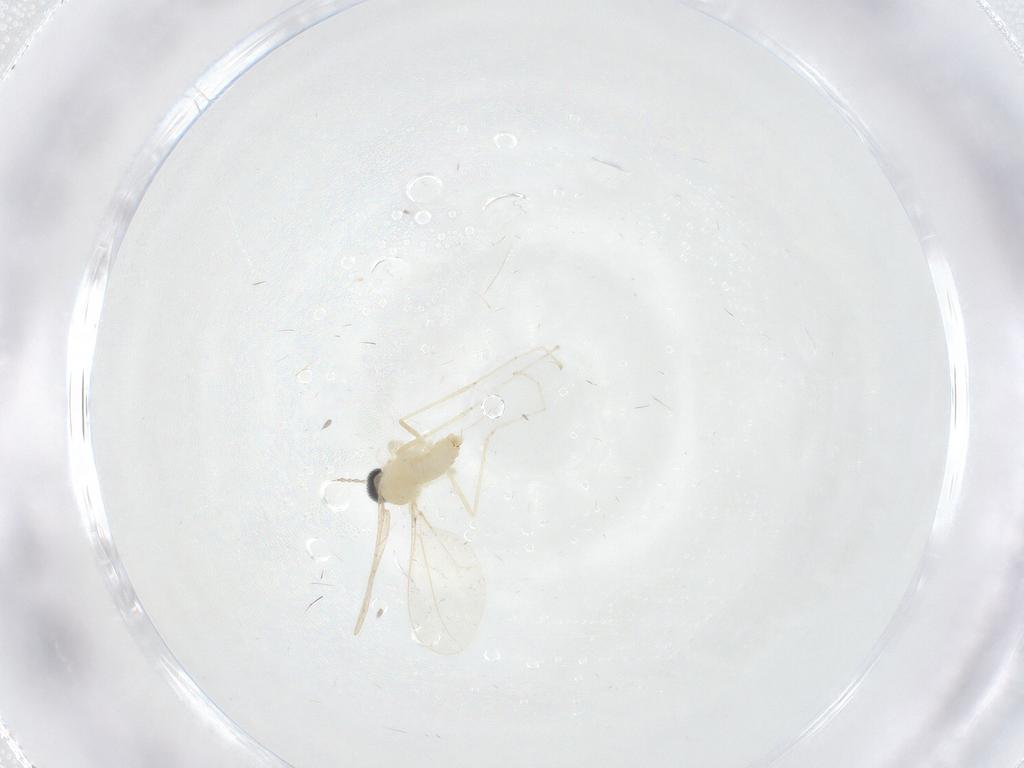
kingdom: Animalia
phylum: Arthropoda
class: Insecta
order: Diptera
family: Cecidomyiidae
